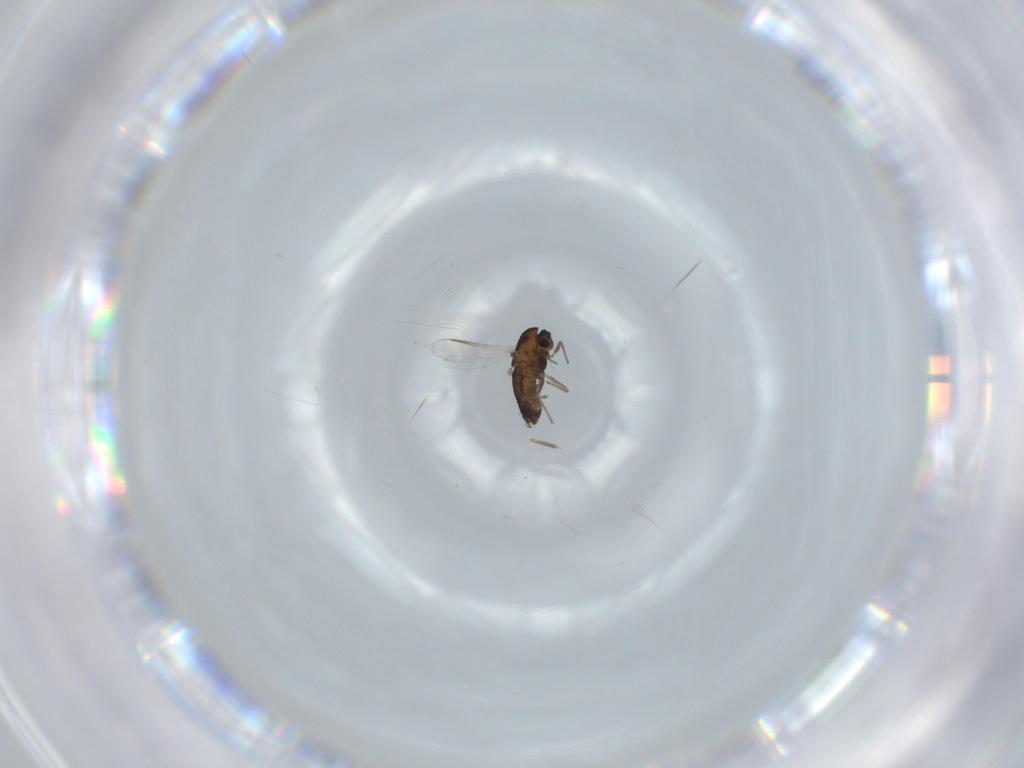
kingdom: Animalia
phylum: Arthropoda
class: Insecta
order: Diptera
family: Chironomidae
